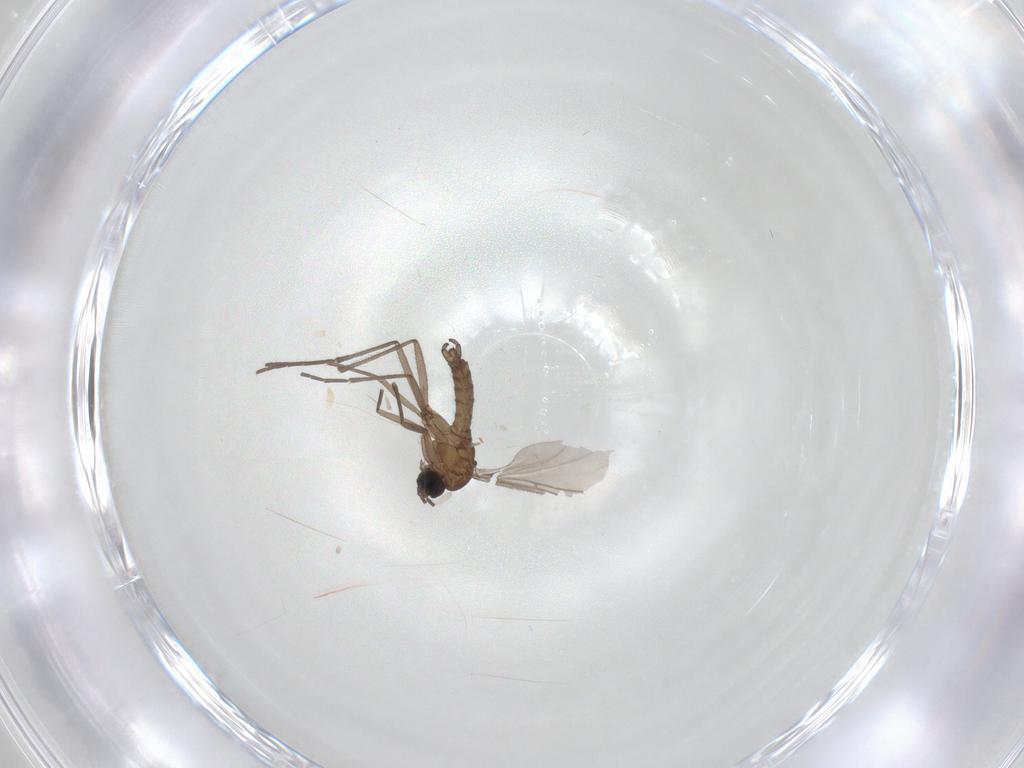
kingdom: Animalia
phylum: Arthropoda
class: Insecta
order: Diptera
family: Sciaridae
